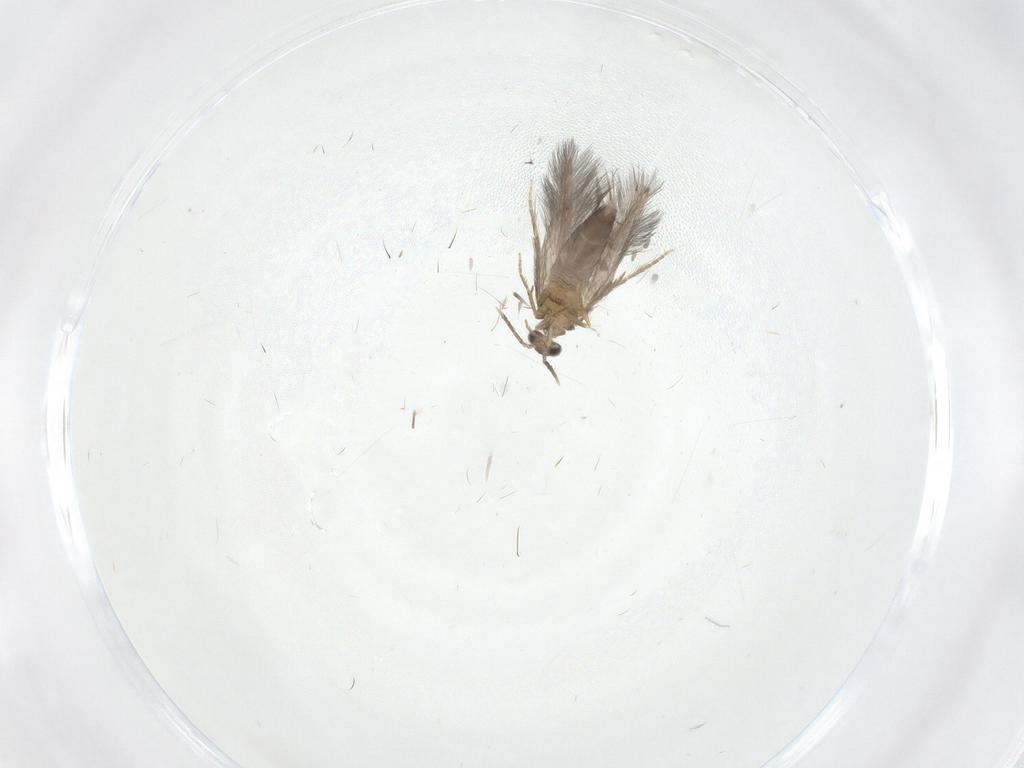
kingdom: Animalia
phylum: Arthropoda
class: Insecta
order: Trichoptera
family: Hydroptilidae
